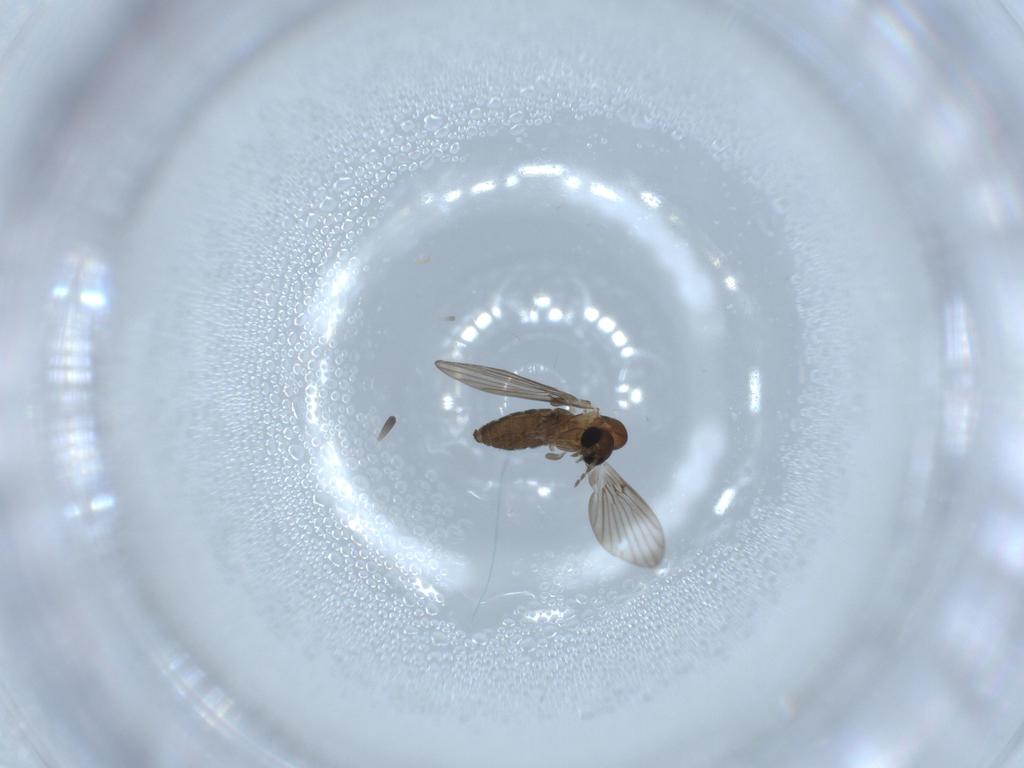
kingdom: Animalia
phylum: Arthropoda
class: Insecta
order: Diptera
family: Psychodidae
